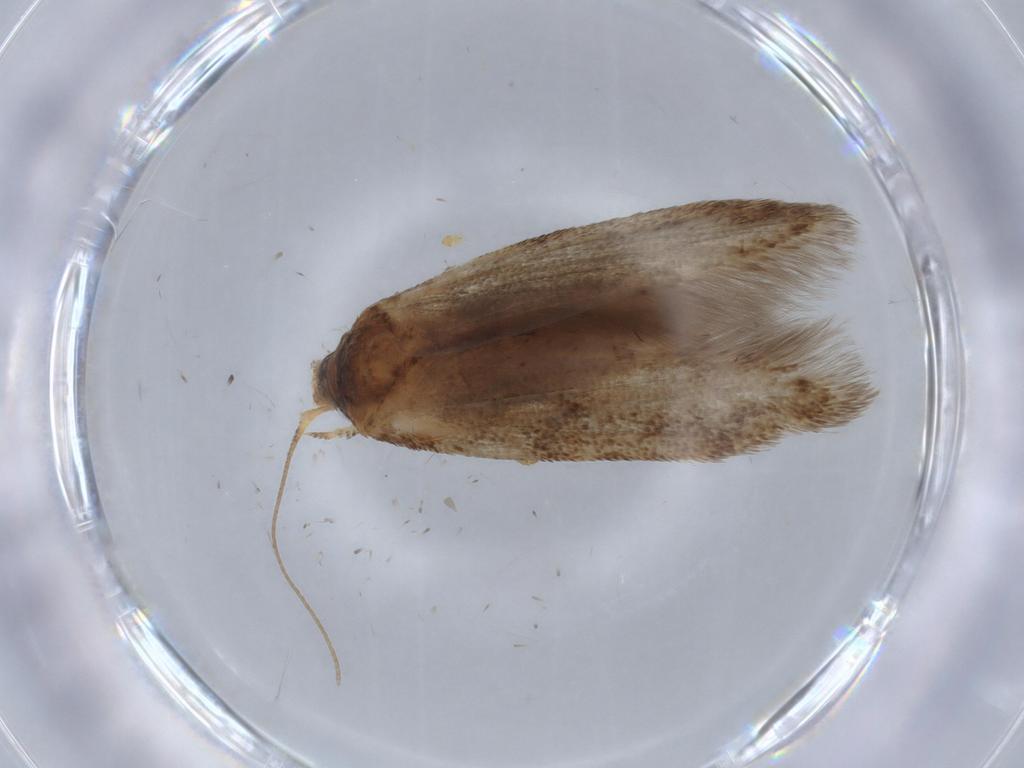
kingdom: Animalia
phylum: Arthropoda
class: Insecta
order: Lepidoptera
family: Blastobasidae
